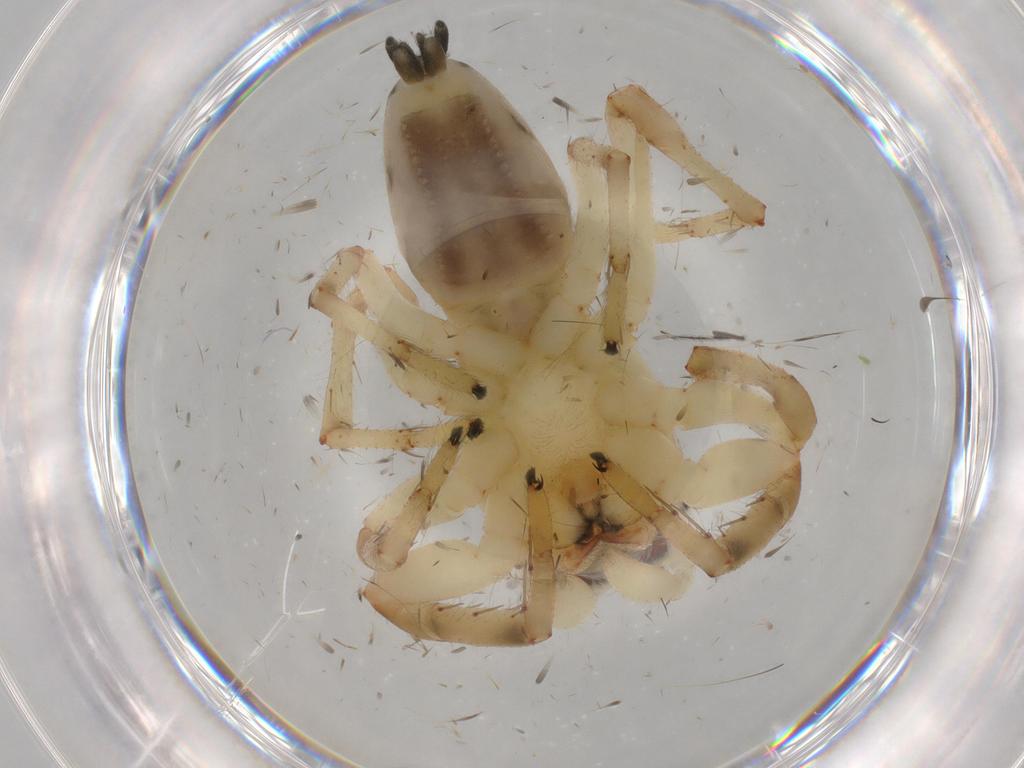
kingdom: Animalia
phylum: Arthropoda
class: Arachnida
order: Araneae
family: Salticidae
